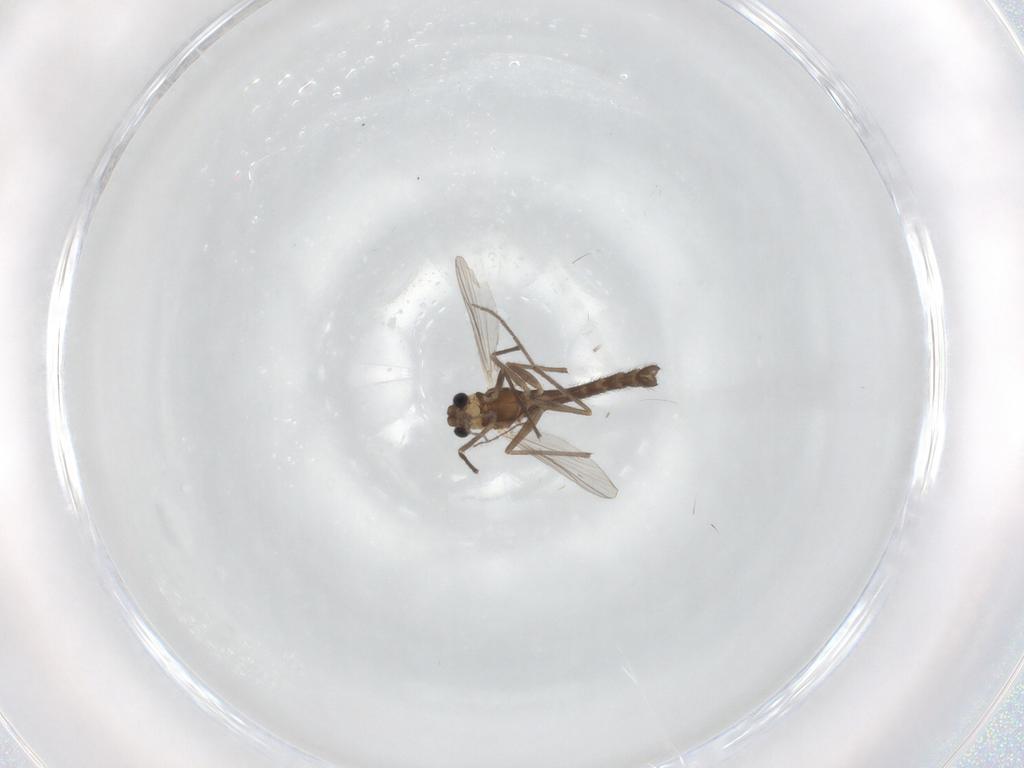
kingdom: Animalia
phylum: Arthropoda
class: Insecta
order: Diptera
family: Chironomidae
